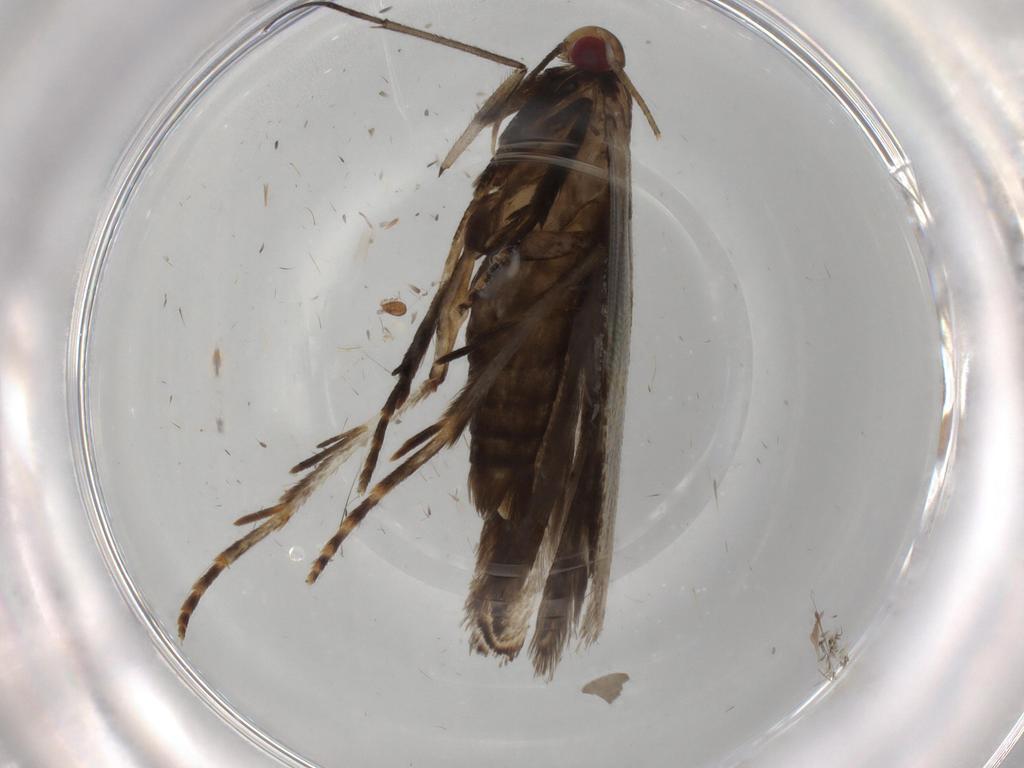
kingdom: Animalia
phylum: Arthropoda
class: Insecta
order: Lepidoptera
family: Gelechiidae
